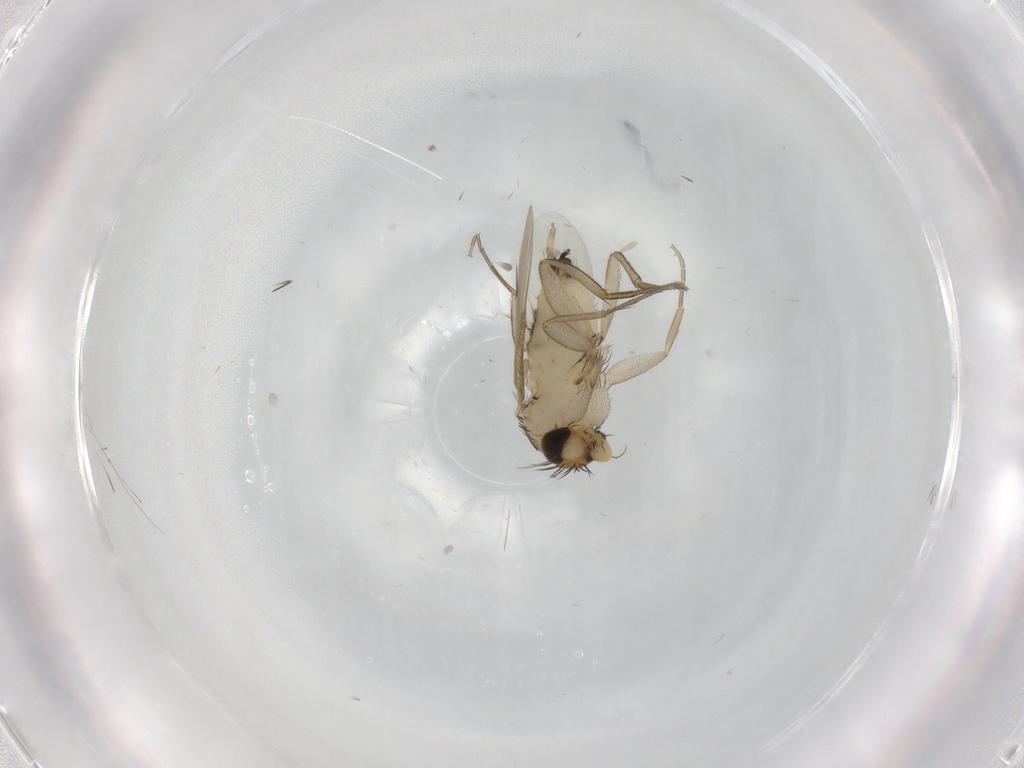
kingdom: Animalia
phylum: Arthropoda
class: Insecta
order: Diptera
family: Phoridae
